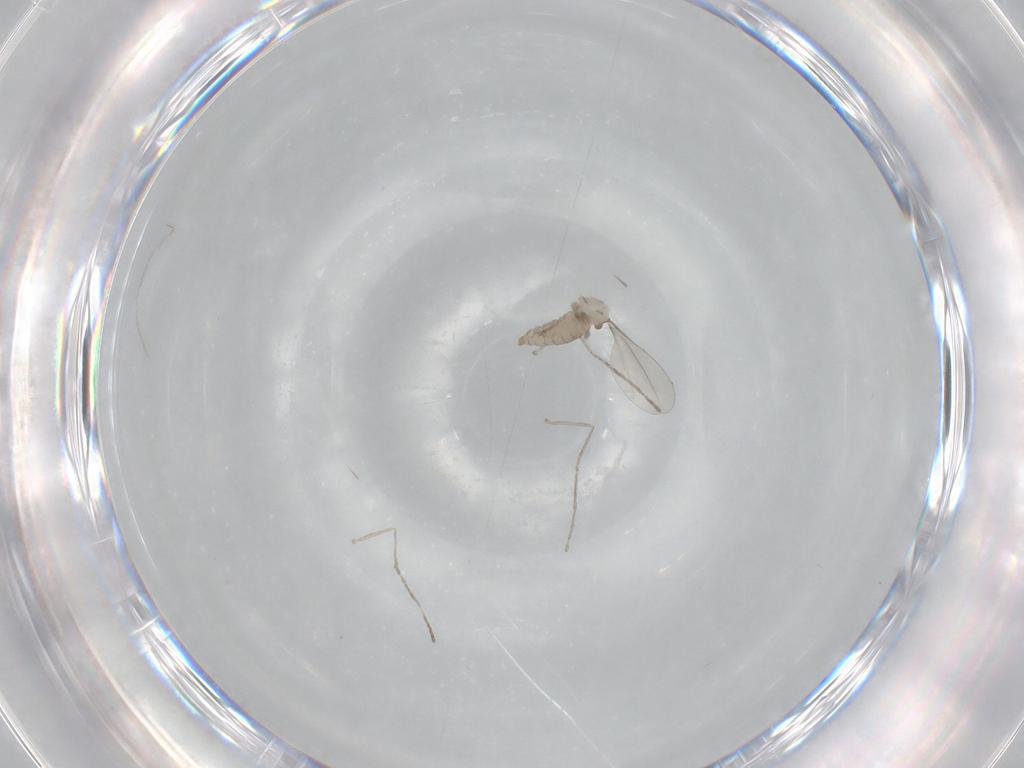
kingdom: Animalia
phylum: Arthropoda
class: Insecta
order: Diptera
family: Cecidomyiidae
